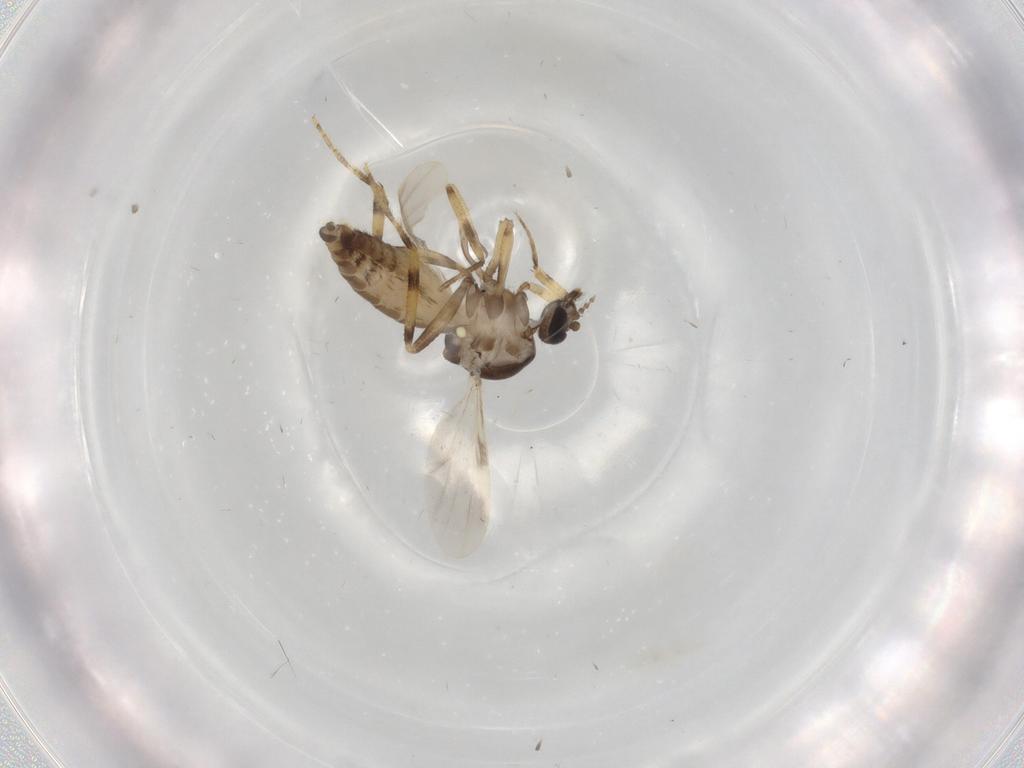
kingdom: Animalia
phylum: Arthropoda
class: Insecta
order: Diptera
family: Ceratopogonidae
